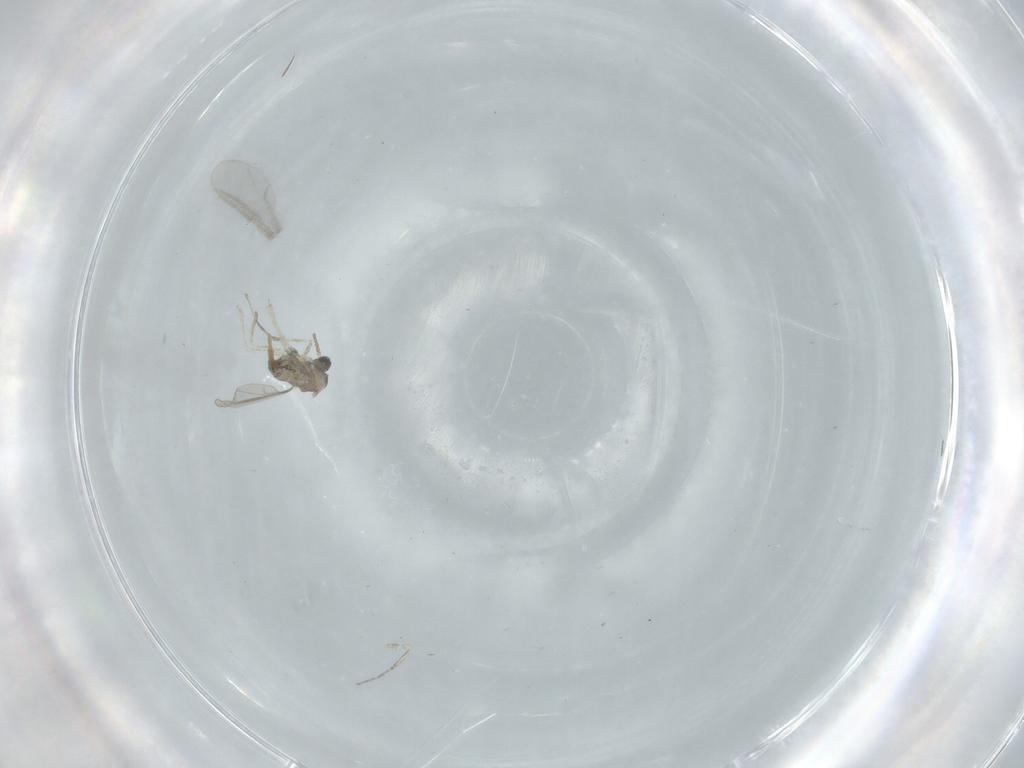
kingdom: Animalia
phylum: Arthropoda
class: Insecta
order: Diptera
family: Cecidomyiidae
